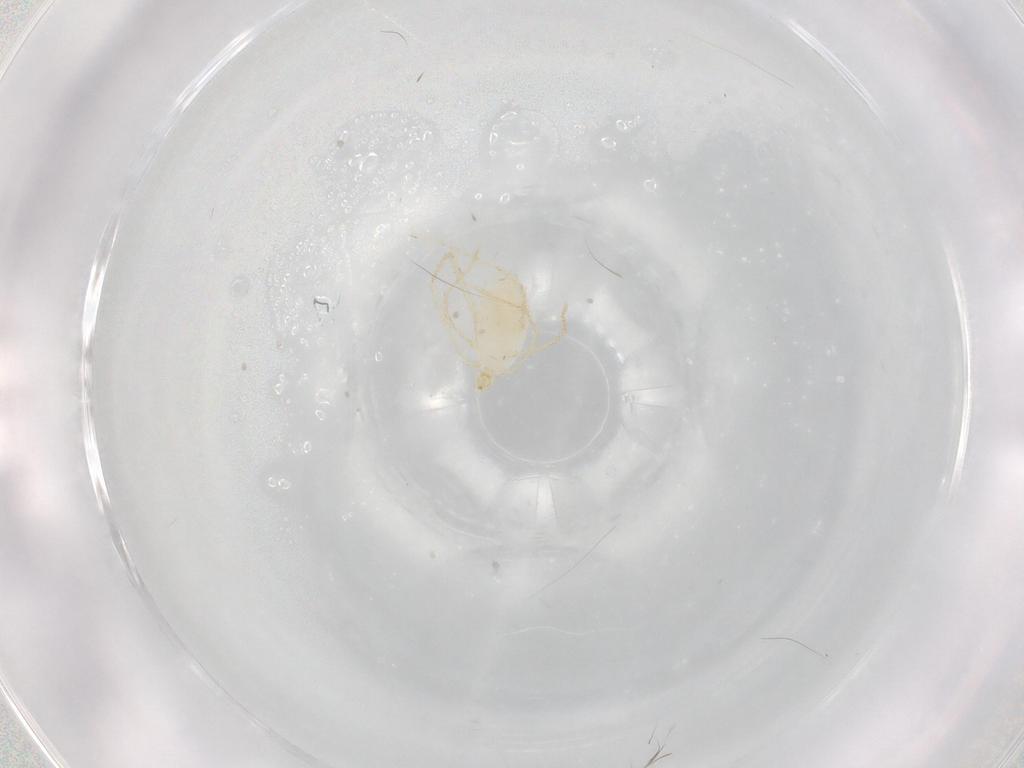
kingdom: Animalia
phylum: Arthropoda
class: Arachnida
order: Trombidiformes
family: Erythraeidae
